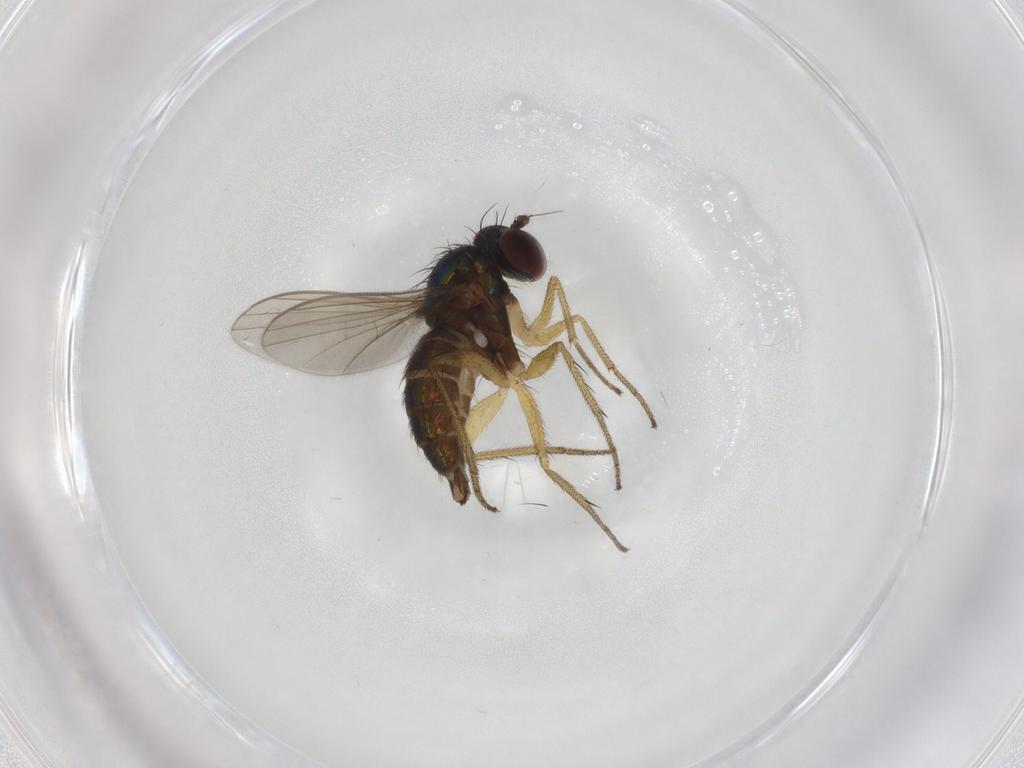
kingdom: Animalia
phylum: Arthropoda
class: Insecta
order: Diptera
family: Dolichopodidae
